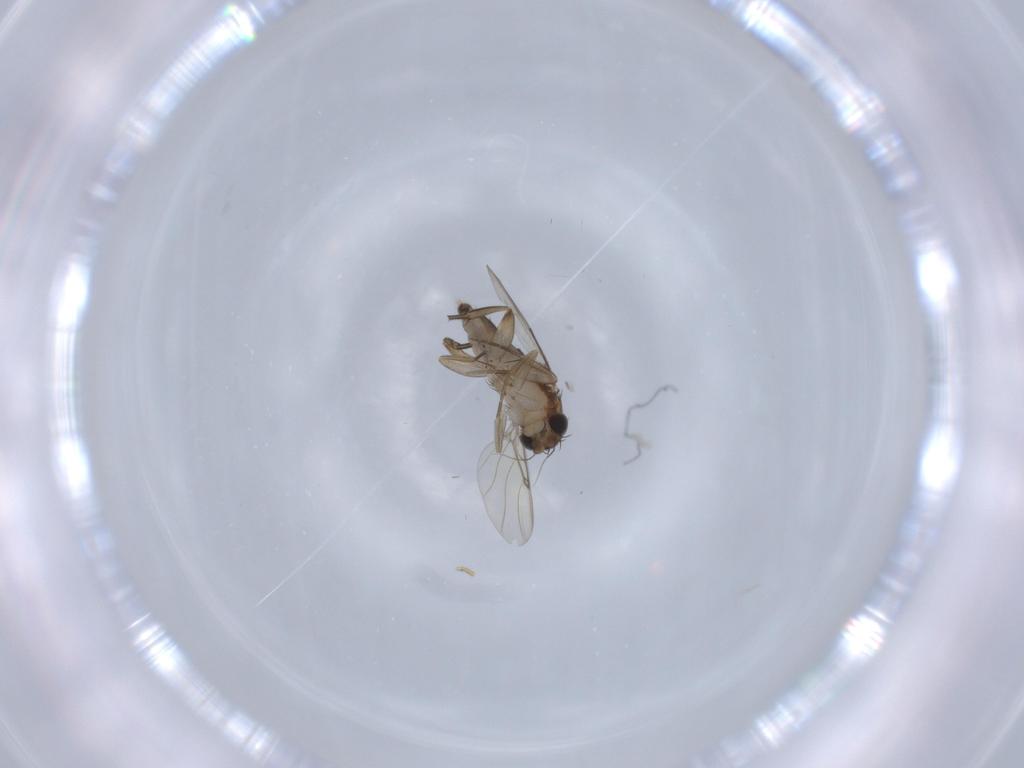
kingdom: Animalia
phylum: Arthropoda
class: Insecta
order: Diptera
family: Phoridae
